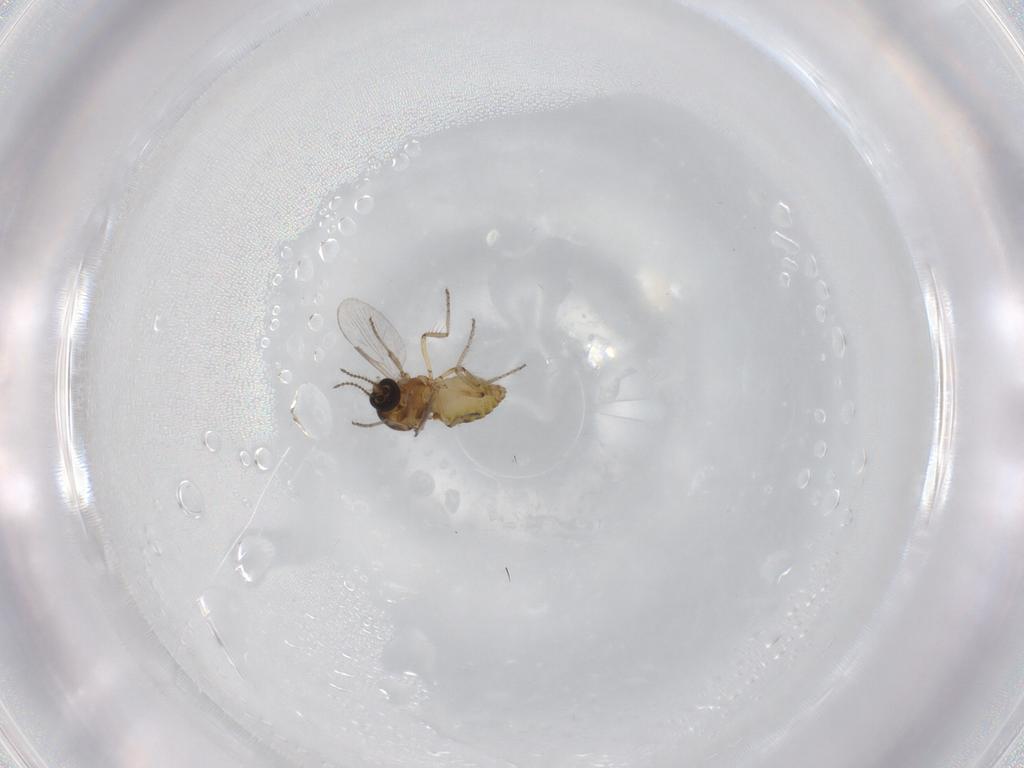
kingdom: Animalia
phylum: Arthropoda
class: Insecta
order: Diptera
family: Ceratopogonidae
